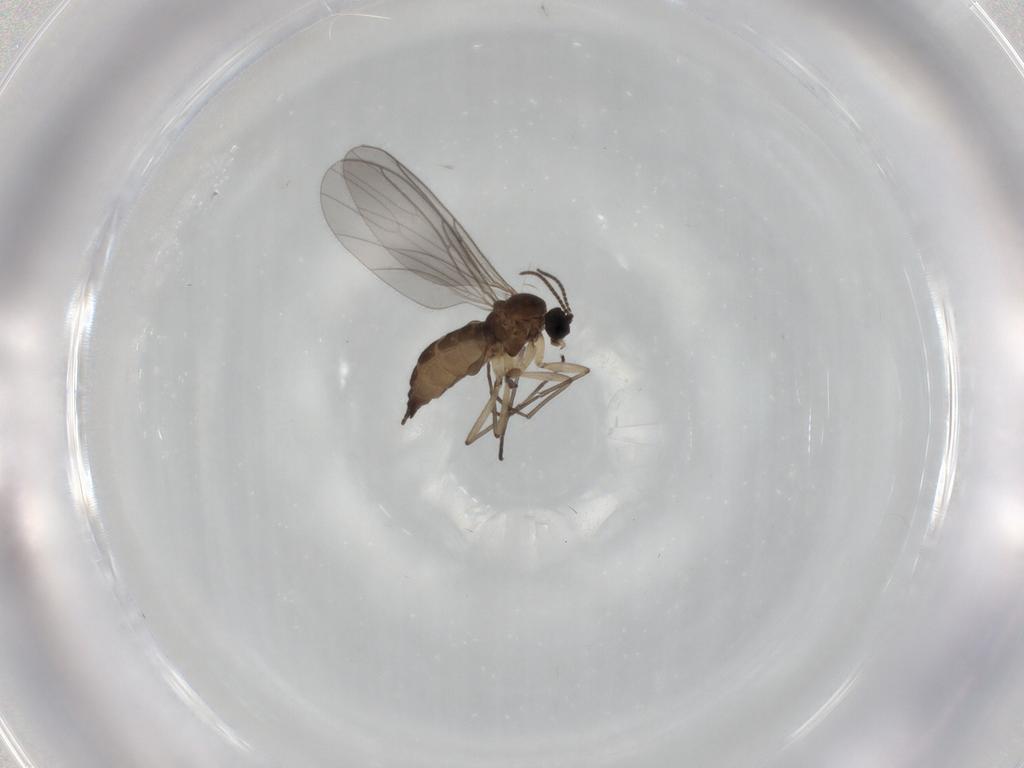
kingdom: Animalia
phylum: Arthropoda
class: Insecta
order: Diptera
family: Sciaridae
